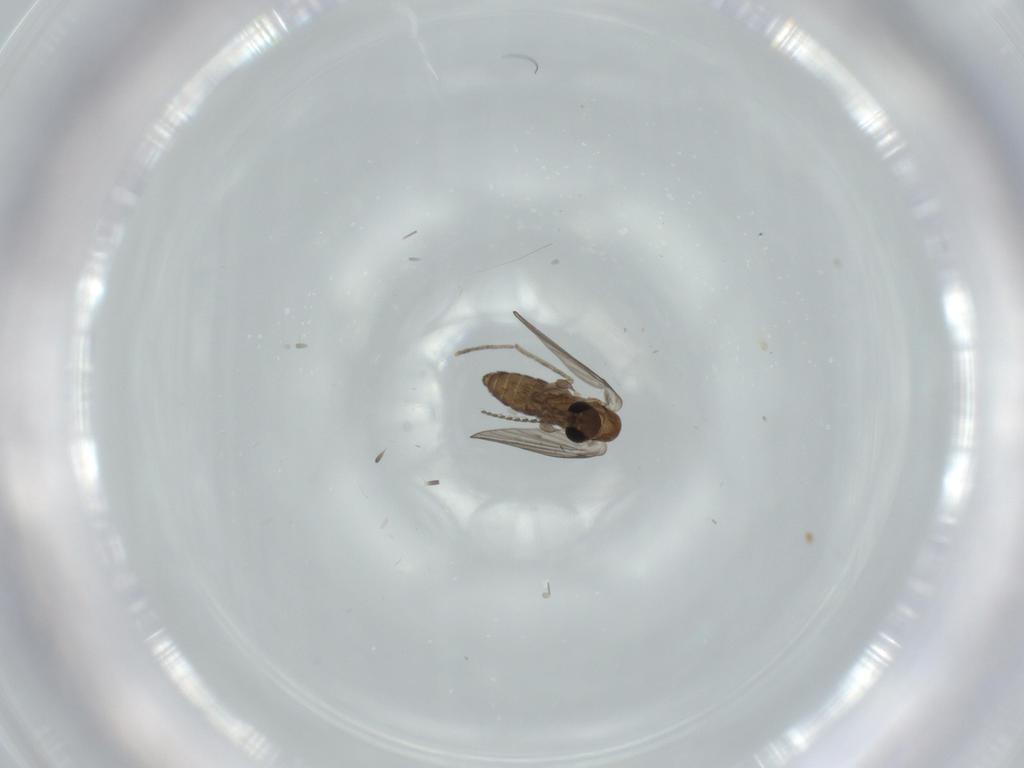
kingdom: Animalia
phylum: Arthropoda
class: Insecta
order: Diptera
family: Psychodidae
